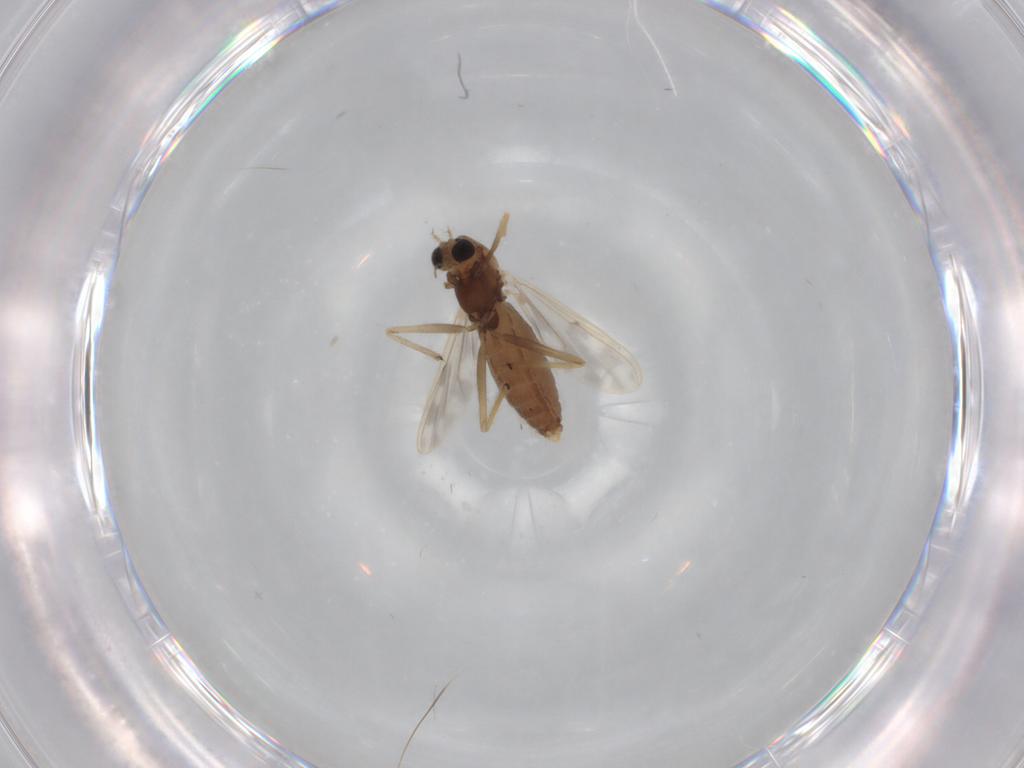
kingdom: Animalia
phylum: Arthropoda
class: Insecta
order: Diptera
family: Chironomidae
